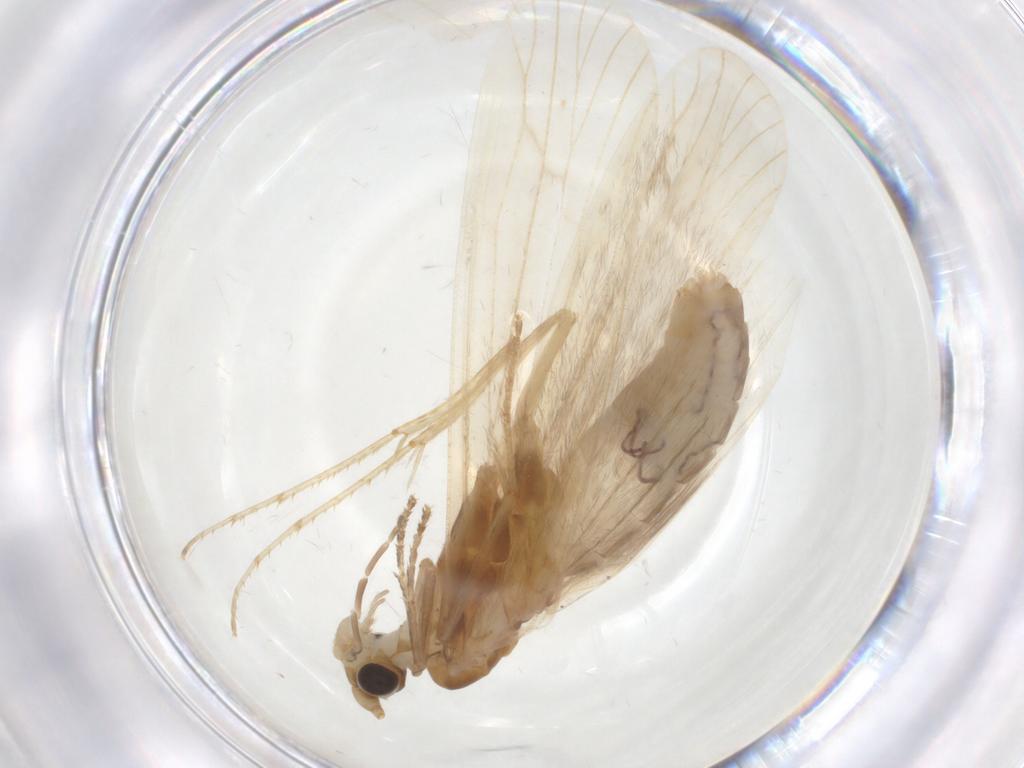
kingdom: Animalia
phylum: Arthropoda
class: Insecta
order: Trichoptera
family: Leptoceridae
